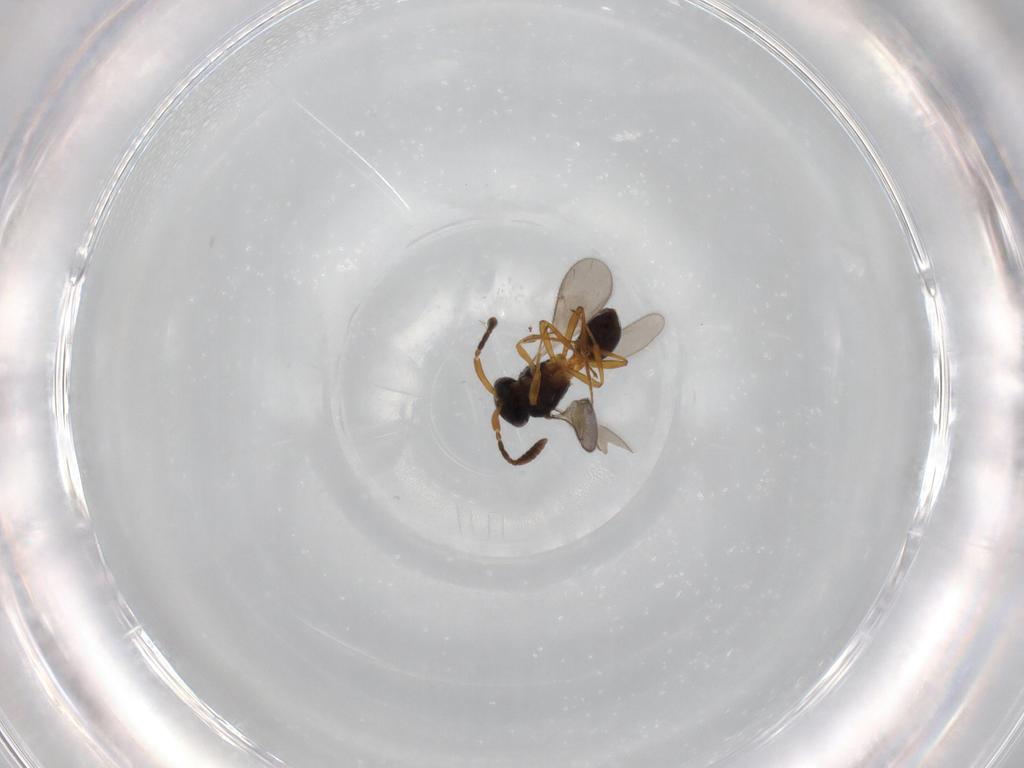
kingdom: Animalia
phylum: Arthropoda
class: Insecta
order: Hymenoptera
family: Scelionidae
